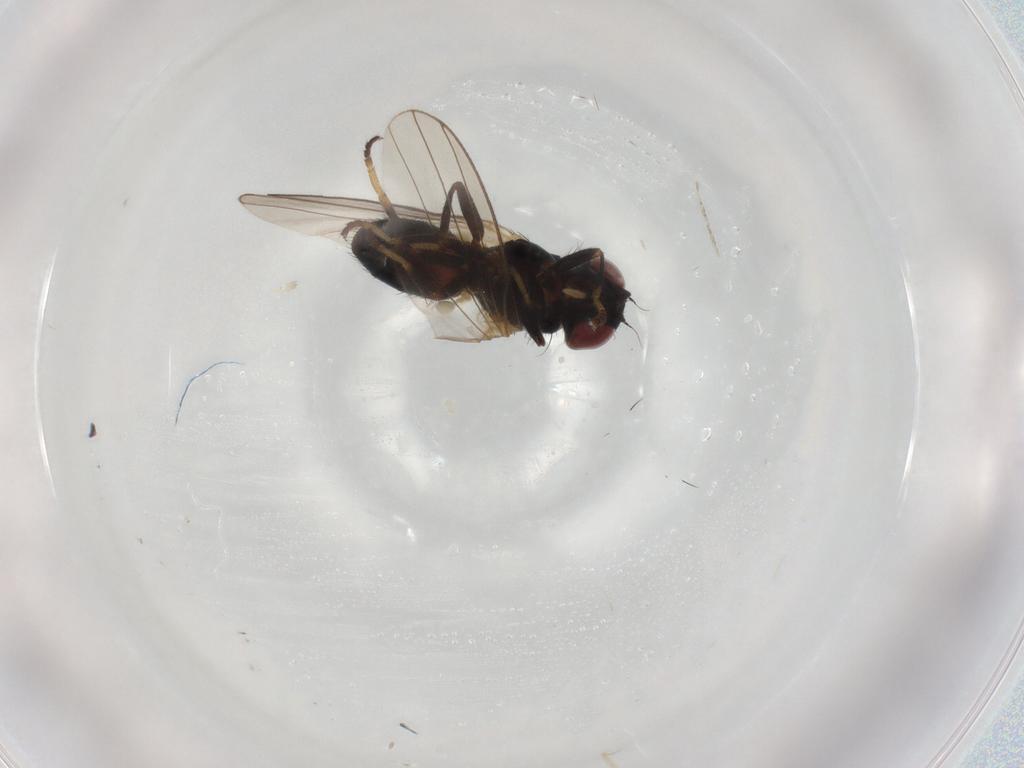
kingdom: Animalia
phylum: Arthropoda
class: Insecta
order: Diptera
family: Chamaemyiidae
